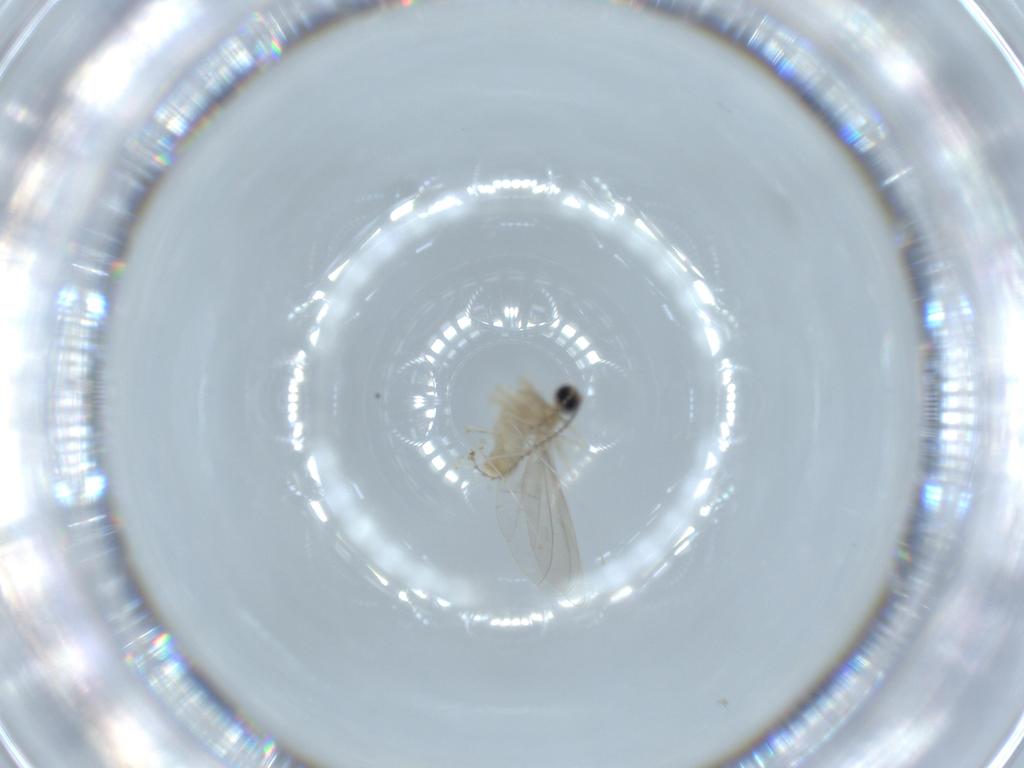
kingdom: Animalia
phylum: Arthropoda
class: Insecta
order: Diptera
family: Cecidomyiidae
